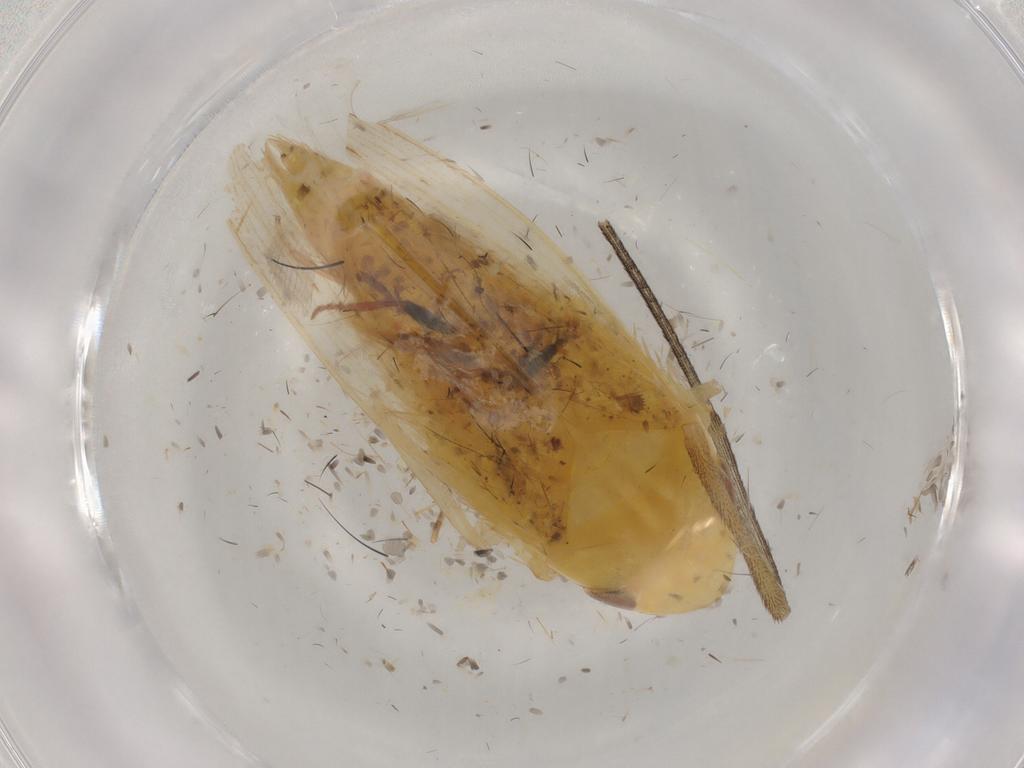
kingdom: Animalia
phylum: Arthropoda
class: Insecta
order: Hemiptera
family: Cicadellidae
